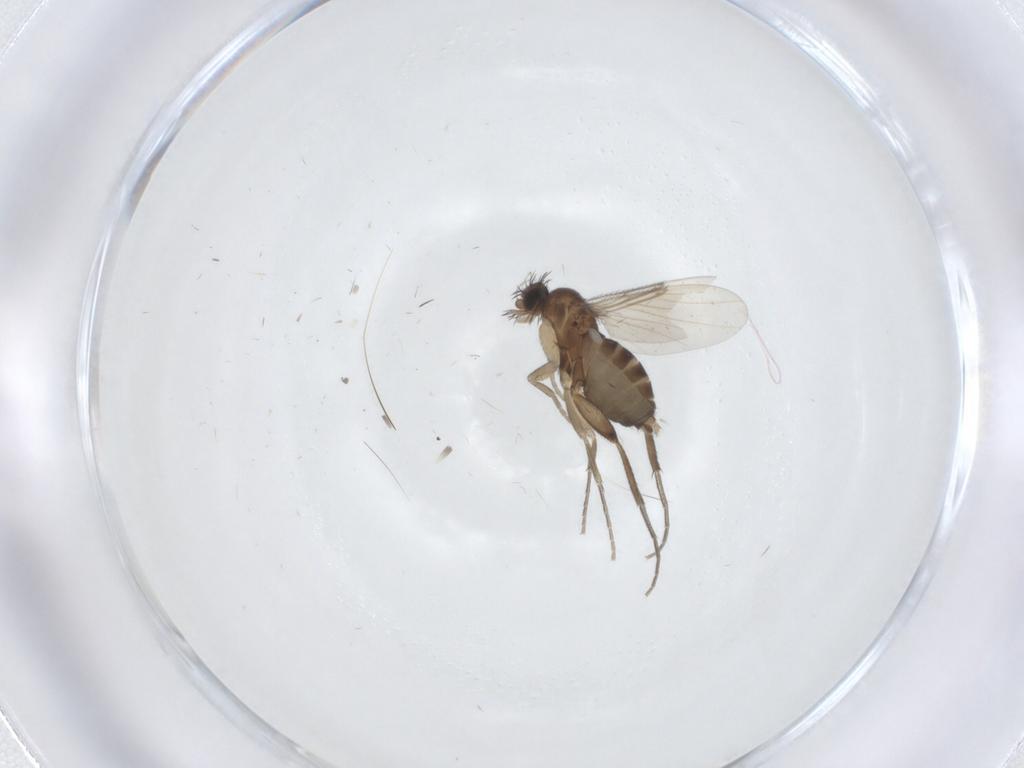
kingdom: Animalia
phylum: Arthropoda
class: Insecta
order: Diptera
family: Phoridae
